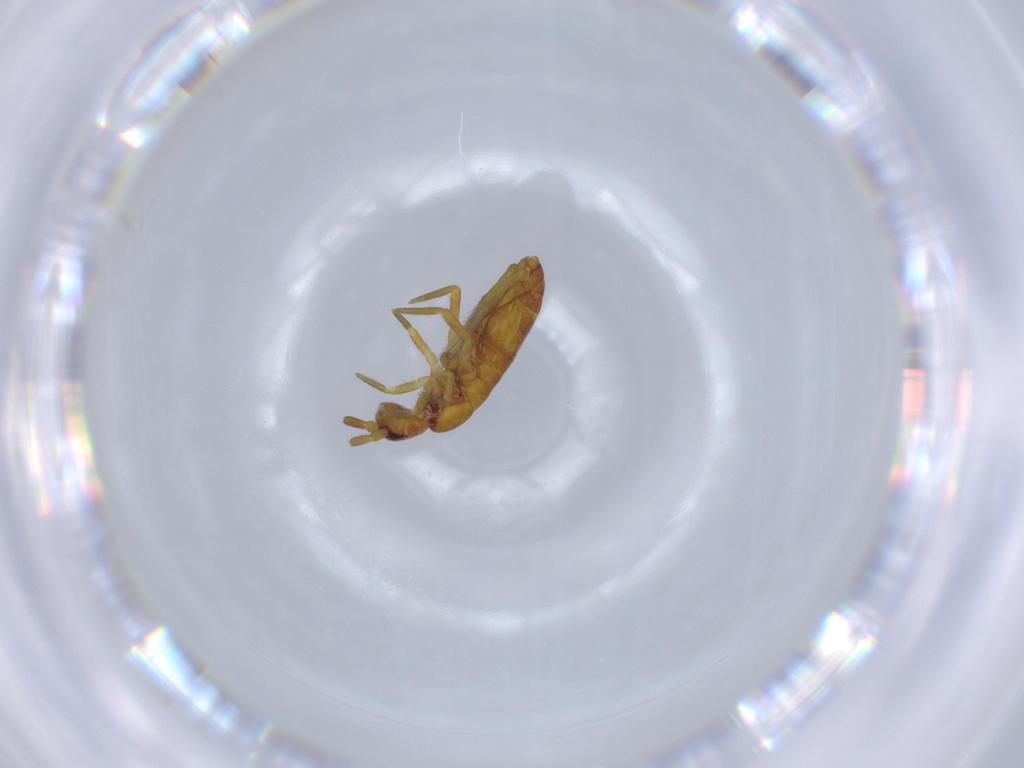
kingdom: Animalia
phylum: Arthropoda
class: Collembola
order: Entomobryomorpha
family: Tomoceridae
